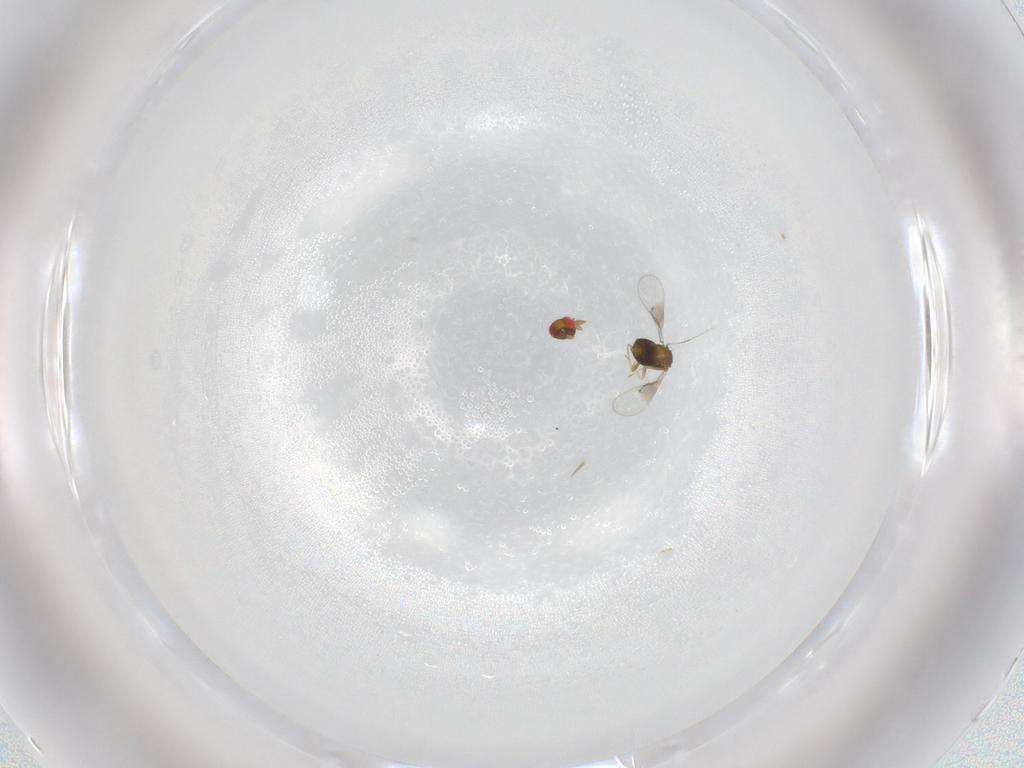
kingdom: Animalia
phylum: Arthropoda
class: Insecta
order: Hymenoptera
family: Trichogrammatidae
